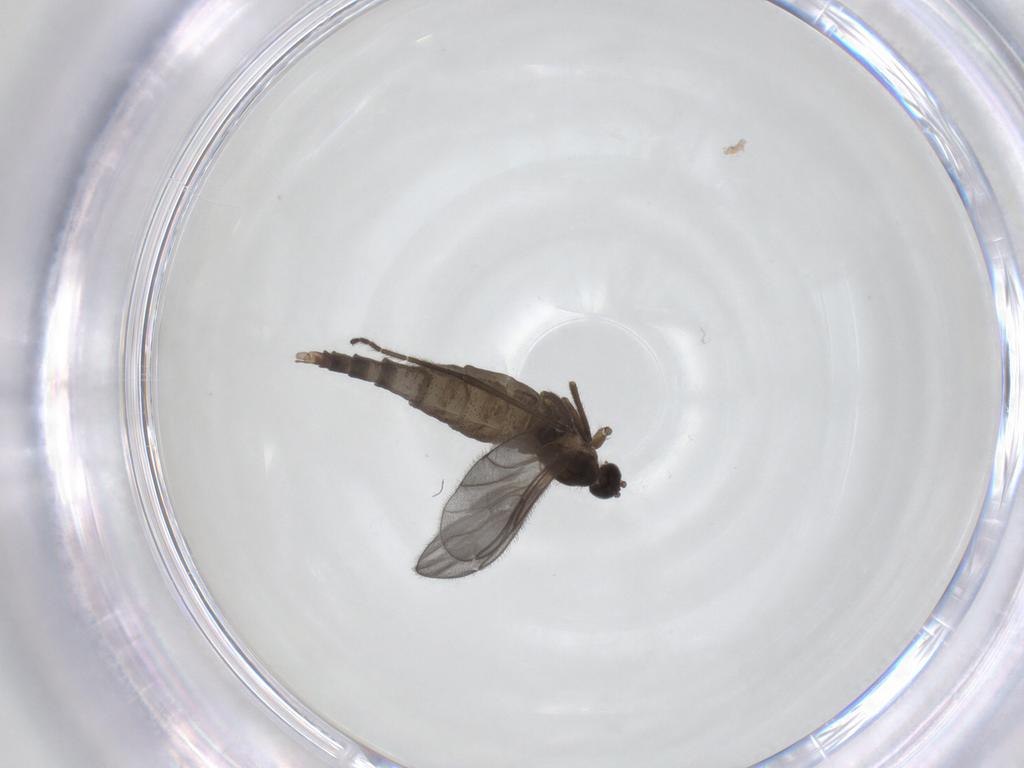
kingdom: Animalia
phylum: Arthropoda
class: Insecta
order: Diptera
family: Cecidomyiidae
